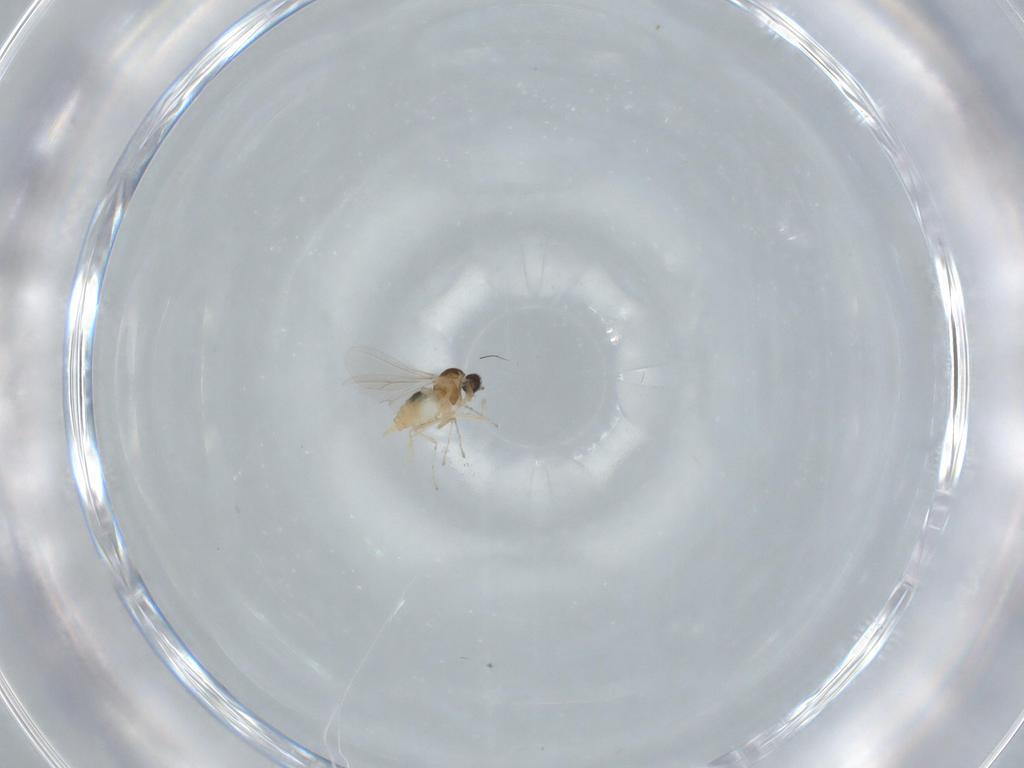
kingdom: Animalia
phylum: Arthropoda
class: Insecta
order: Diptera
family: Cecidomyiidae
